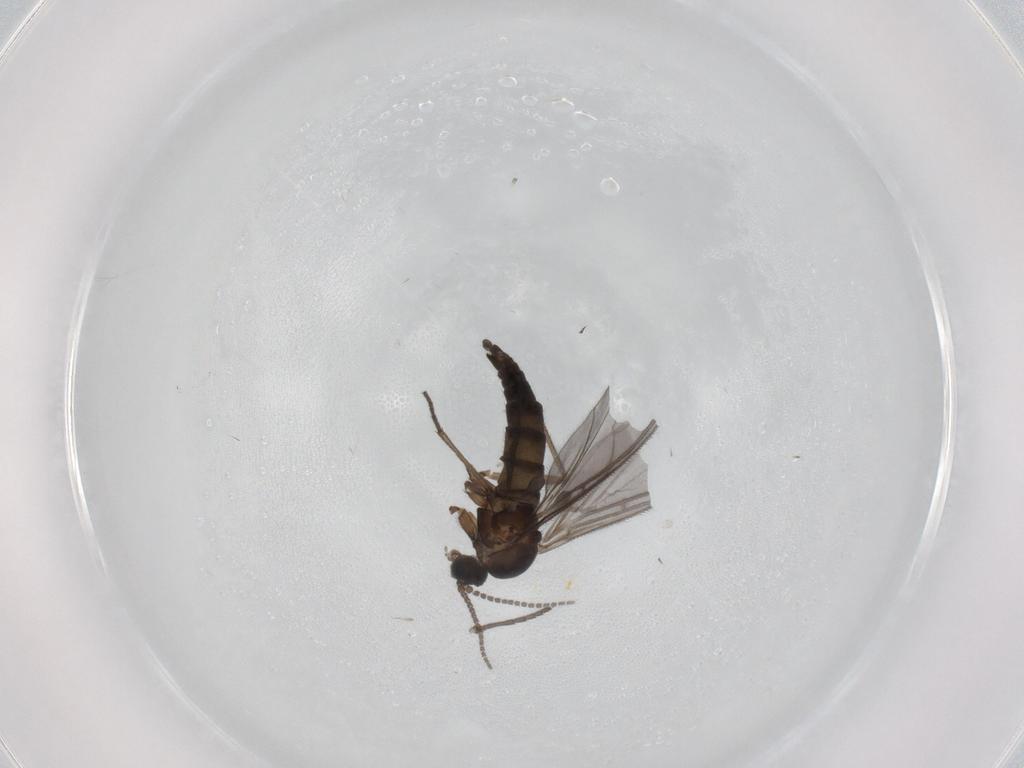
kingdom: Animalia
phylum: Arthropoda
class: Insecta
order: Diptera
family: Sciaridae
